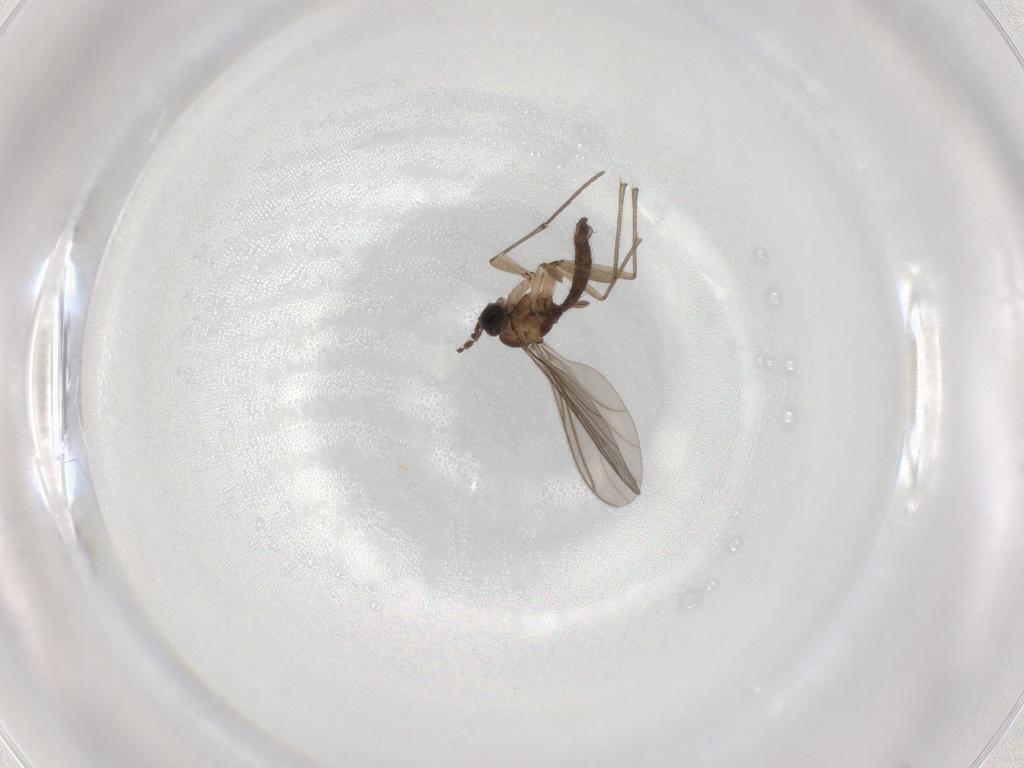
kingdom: Animalia
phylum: Arthropoda
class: Insecta
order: Diptera
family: Sciaridae
